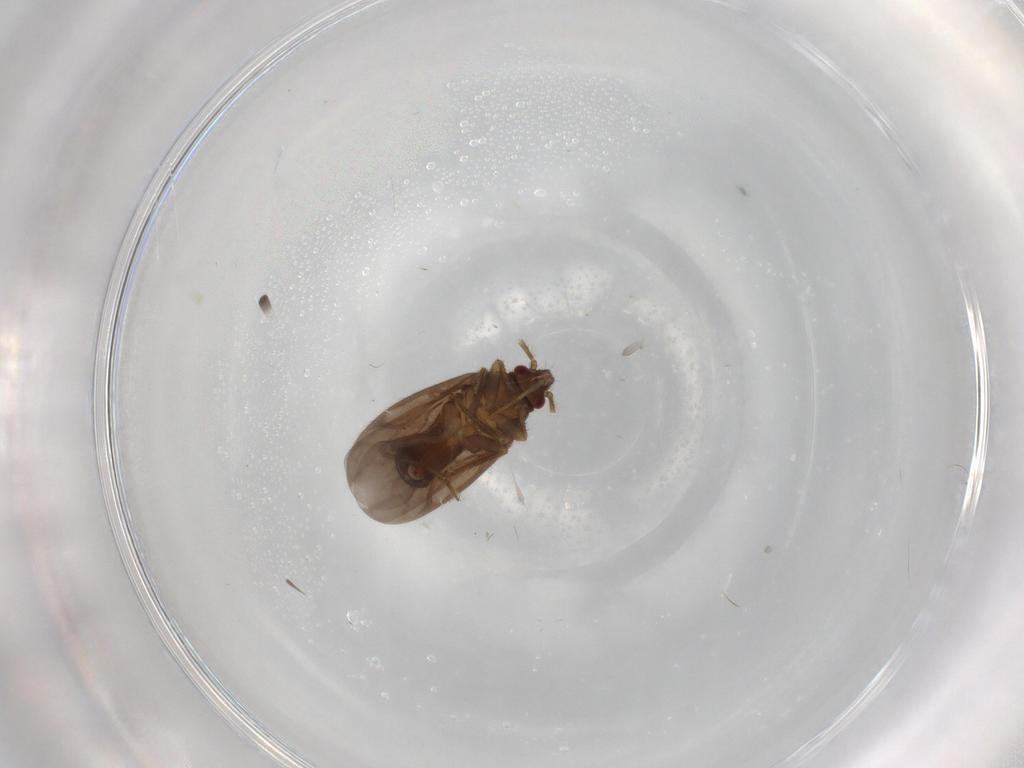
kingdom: Animalia
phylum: Arthropoda
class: Insecta
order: Hemiptera
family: Ceratocombidae
